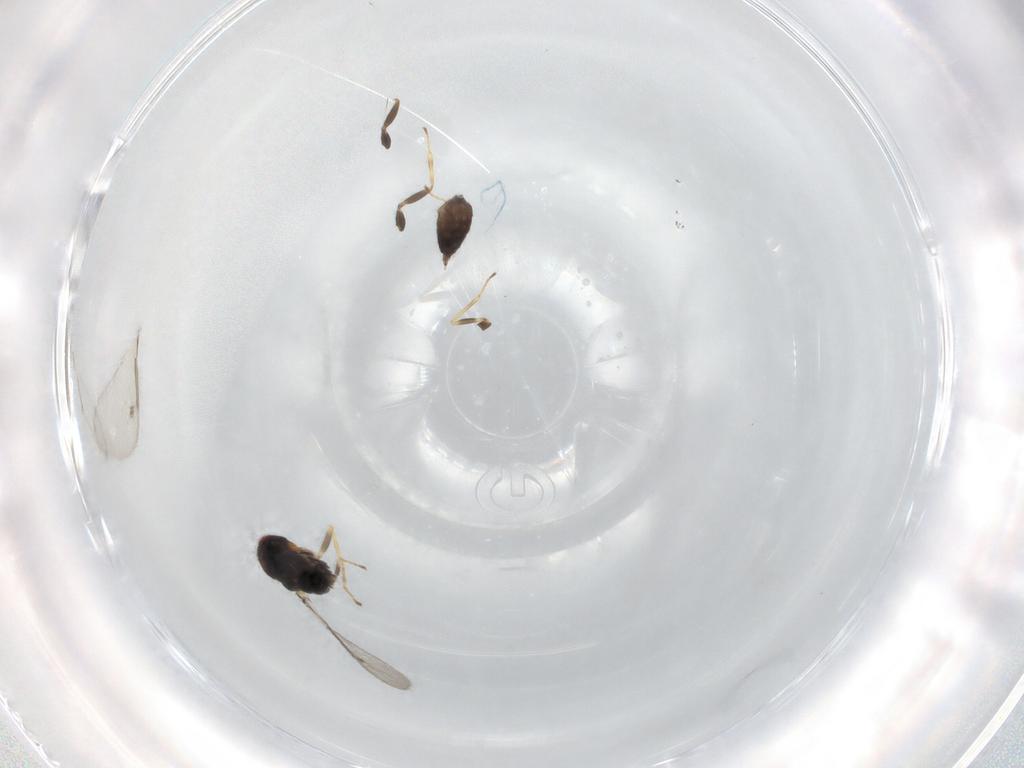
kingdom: Animalia
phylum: Arthropoda
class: Insecta
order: Hymenoptera
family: Eulophidae
